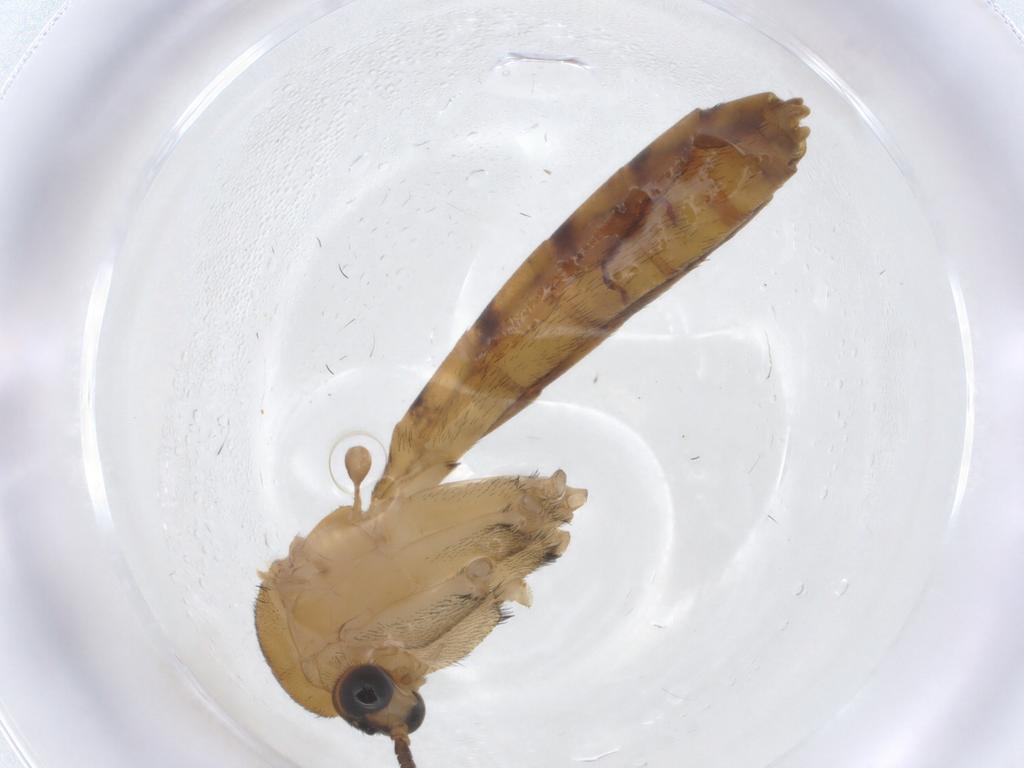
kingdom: Animalia
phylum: Arthropoda
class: Insecta
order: Diptera
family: Keroplatidae
